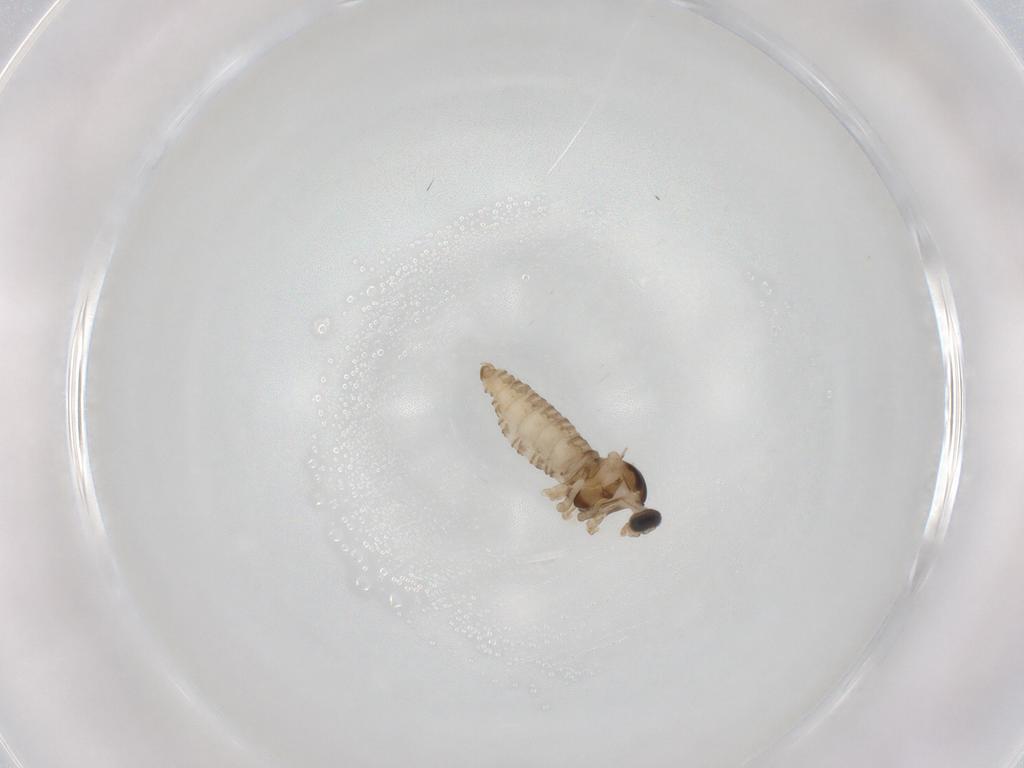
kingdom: Animalia
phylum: Arthropoda
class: Insecta
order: Diptera
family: Cecidomyiidae
